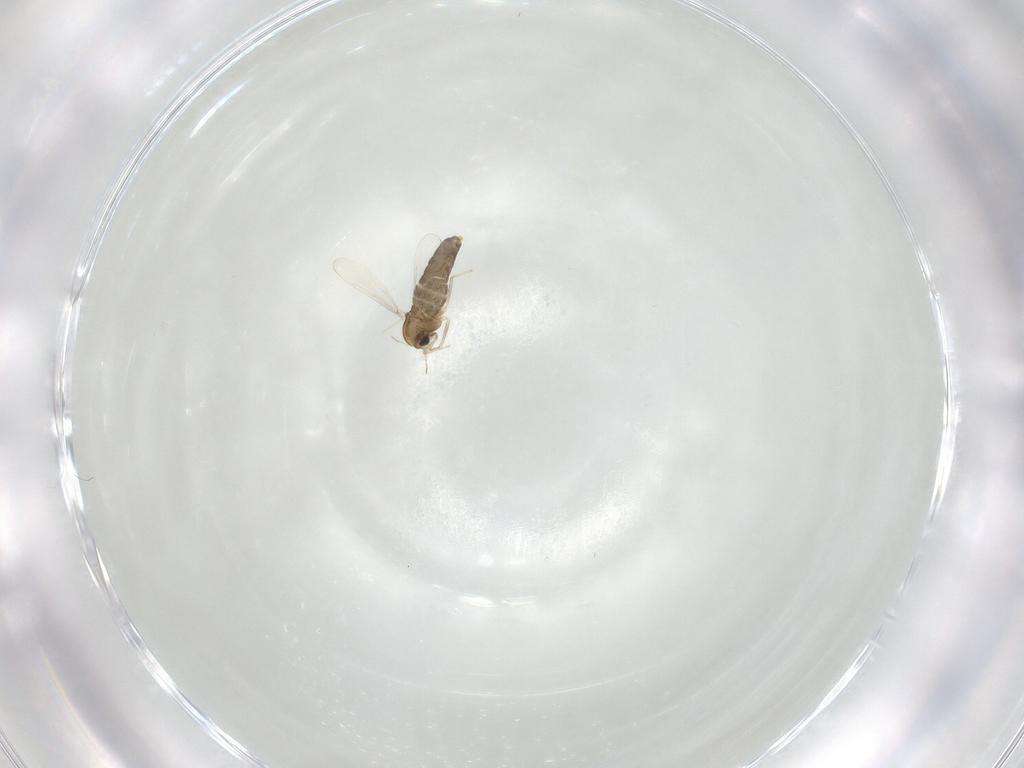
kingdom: Animalia
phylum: Arthropoda
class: Insecta
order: Diptera
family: Chironomidae
